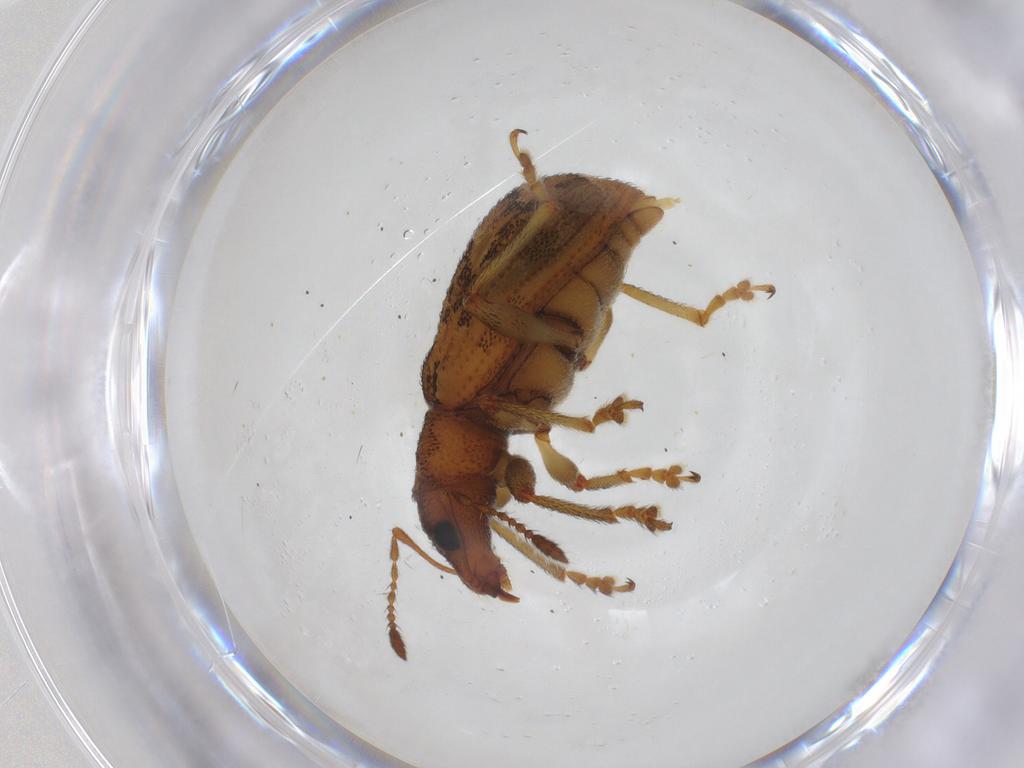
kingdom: Animalia
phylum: Arthropoda
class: Insecta
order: Coleoptera
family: Curculionidae
